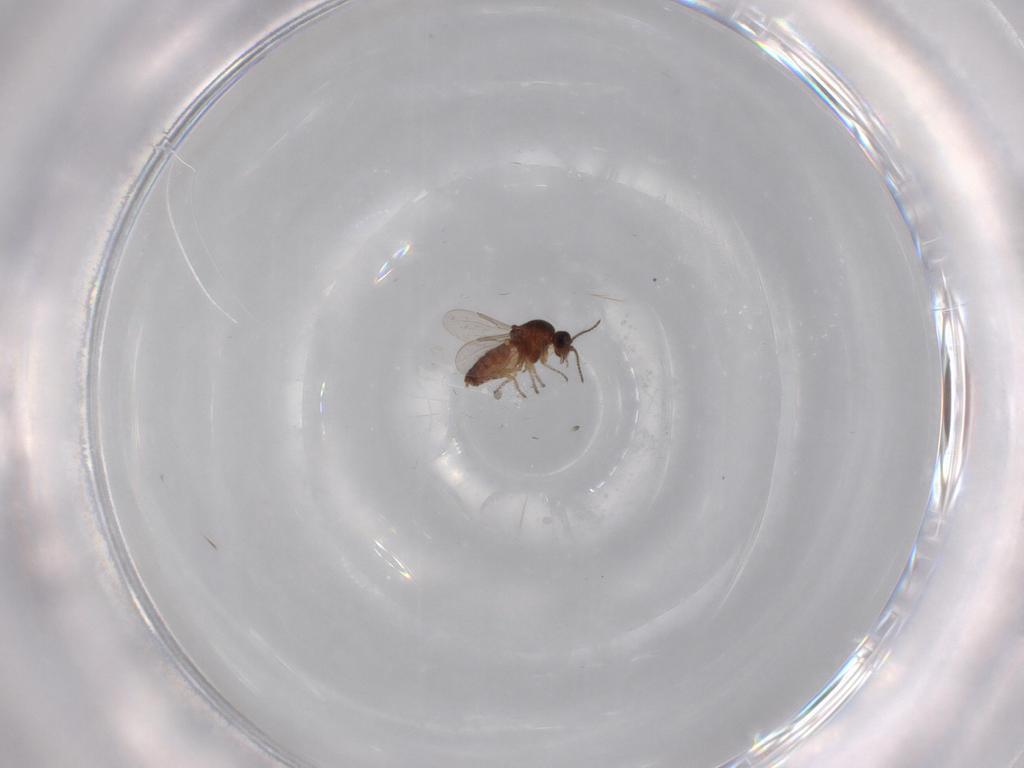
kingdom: Animalia
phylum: Arthropoda
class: Insecta
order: Diptera
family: Ceratopogonidae
